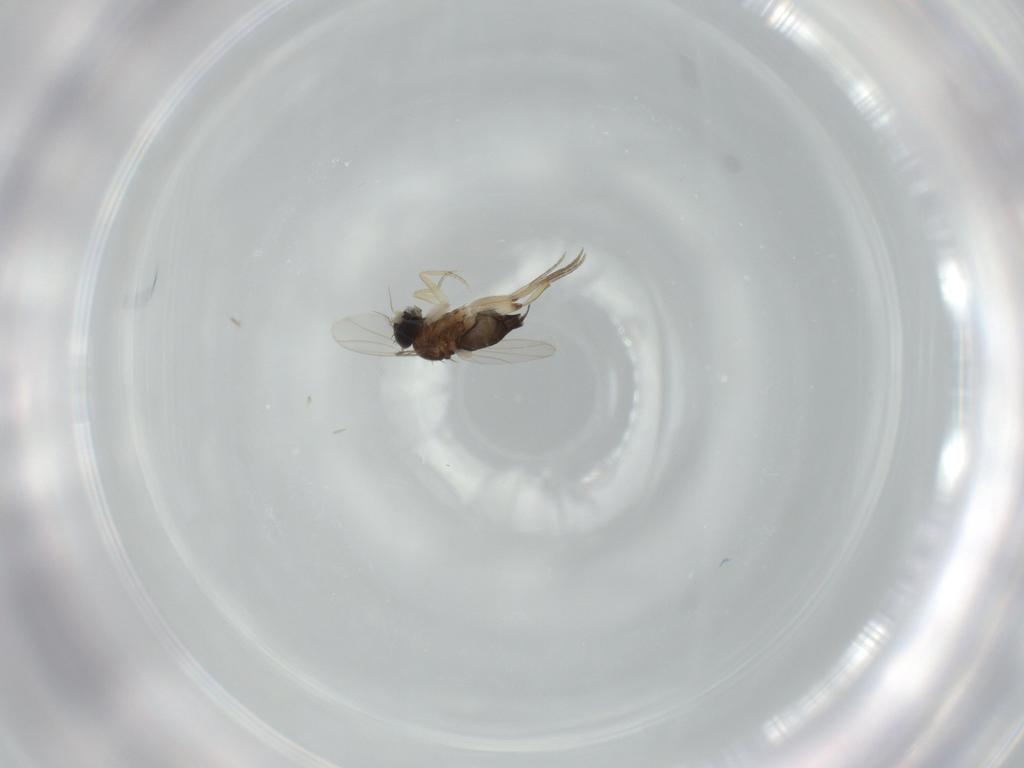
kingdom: Animalia
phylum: Arthropoda
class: Insecta
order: Diptera
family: Phoridae
